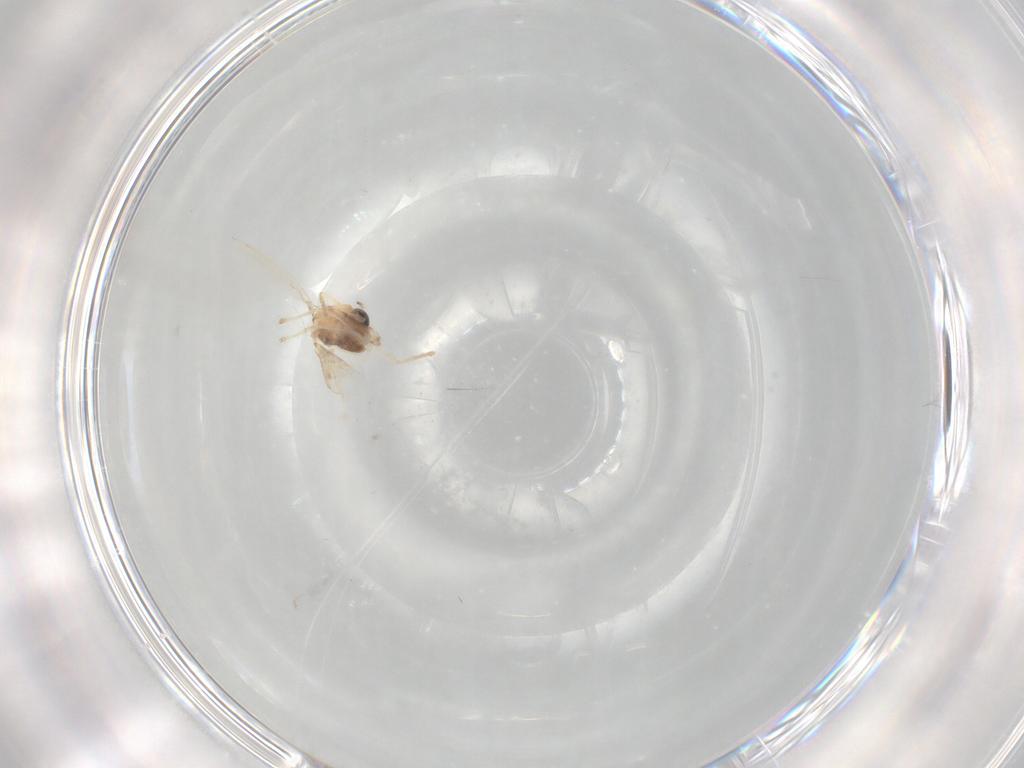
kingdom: Animalia
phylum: Arthropoda
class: Insecta
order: Diptera
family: Chironomidae
